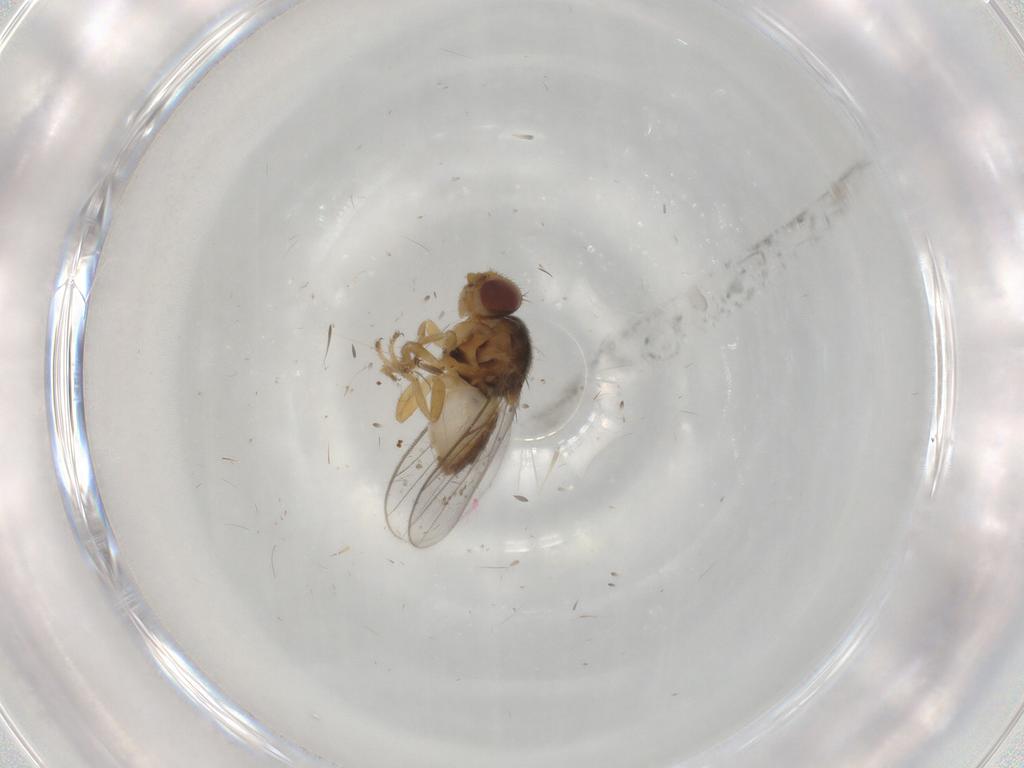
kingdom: Animalia
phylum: Arthropoda
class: Insecta
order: Diptera
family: Chloropidae
